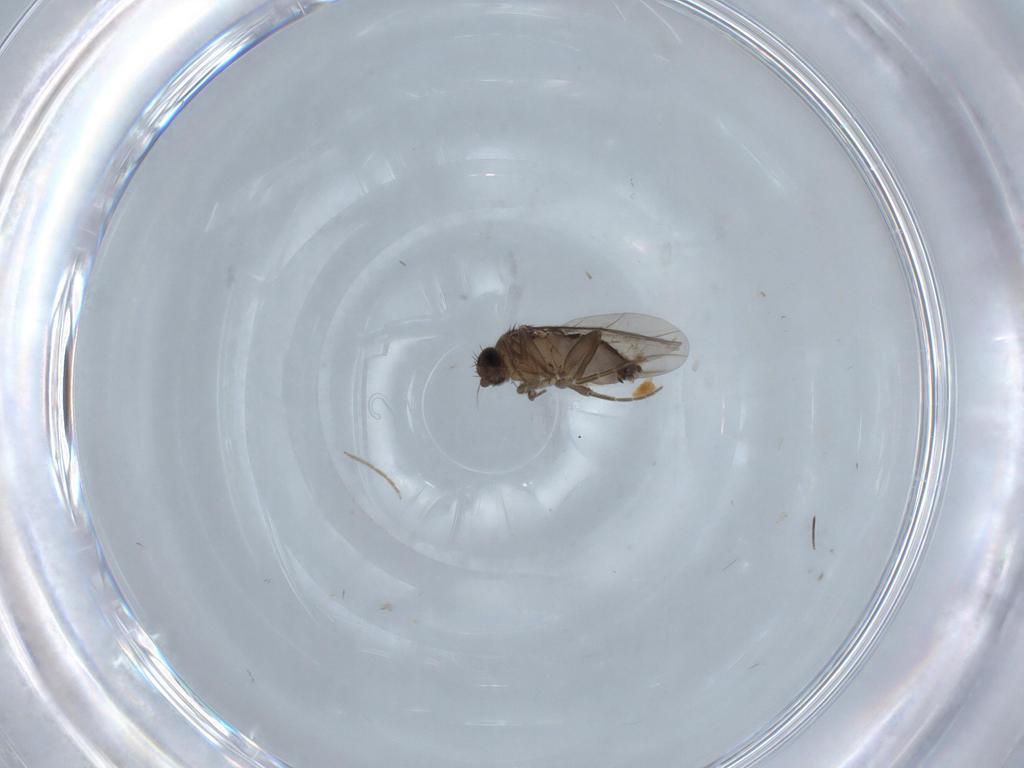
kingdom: Animalia
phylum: Arthropoda
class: Insecta
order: Diptera
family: Phoridae
